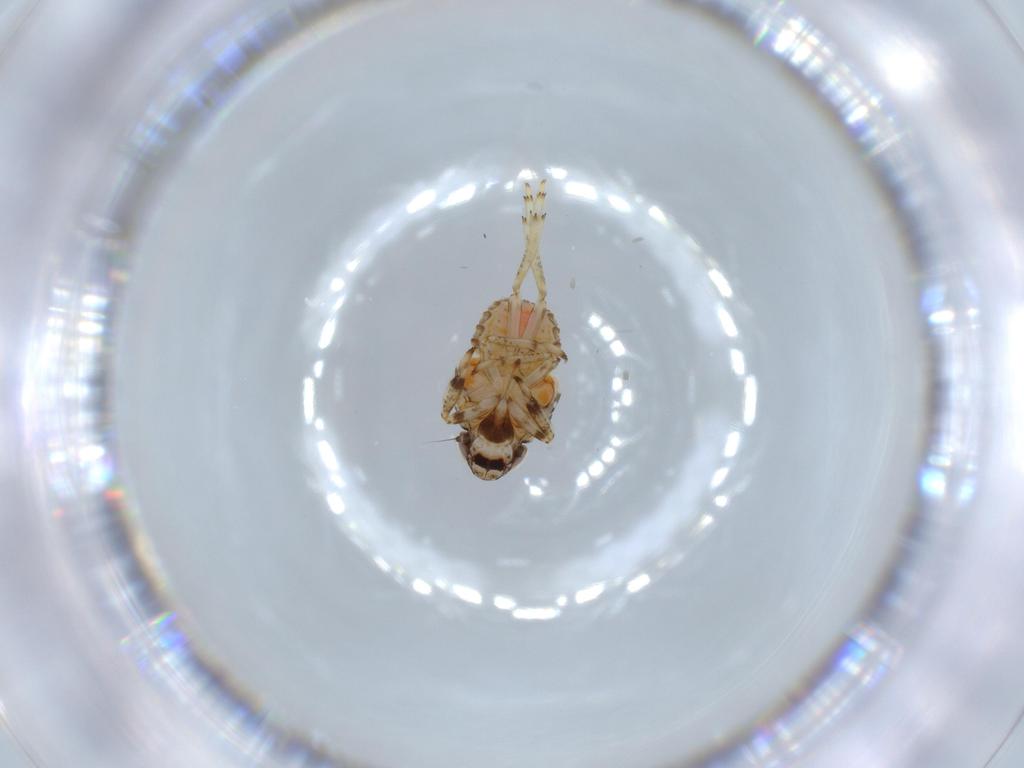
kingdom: Animalia
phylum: Arthropoda
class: Insecta
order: Hemiptera
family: Issidae
